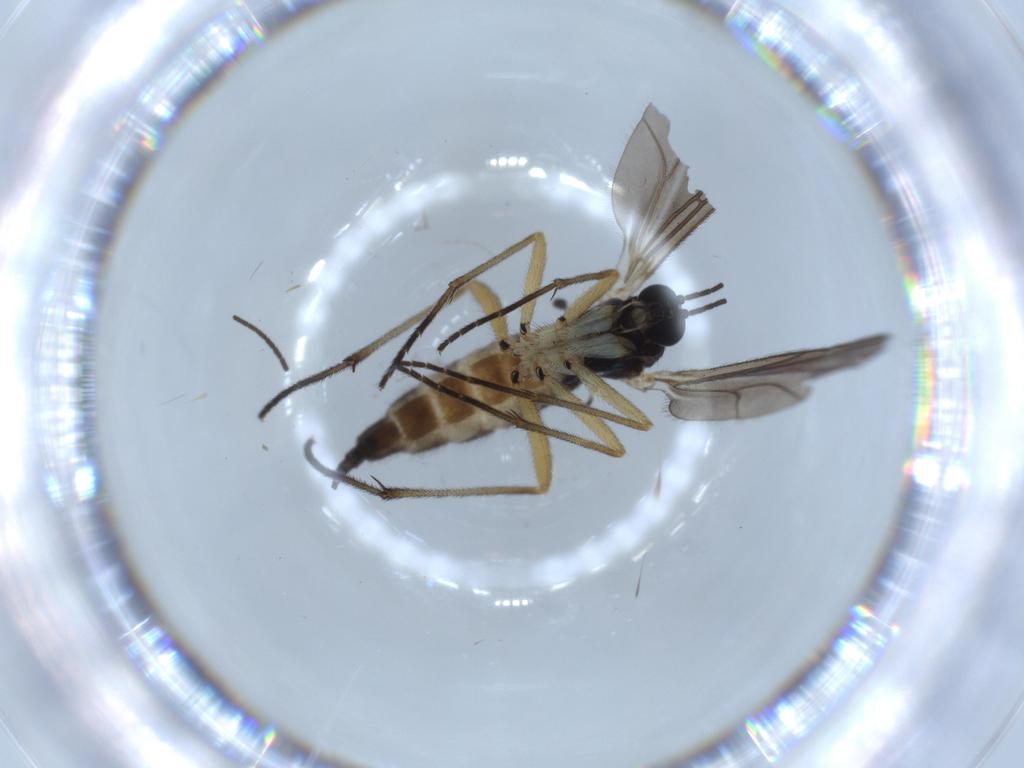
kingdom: Animalia
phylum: Arthropoda
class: Insecta
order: Diptera
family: Sciaridae
